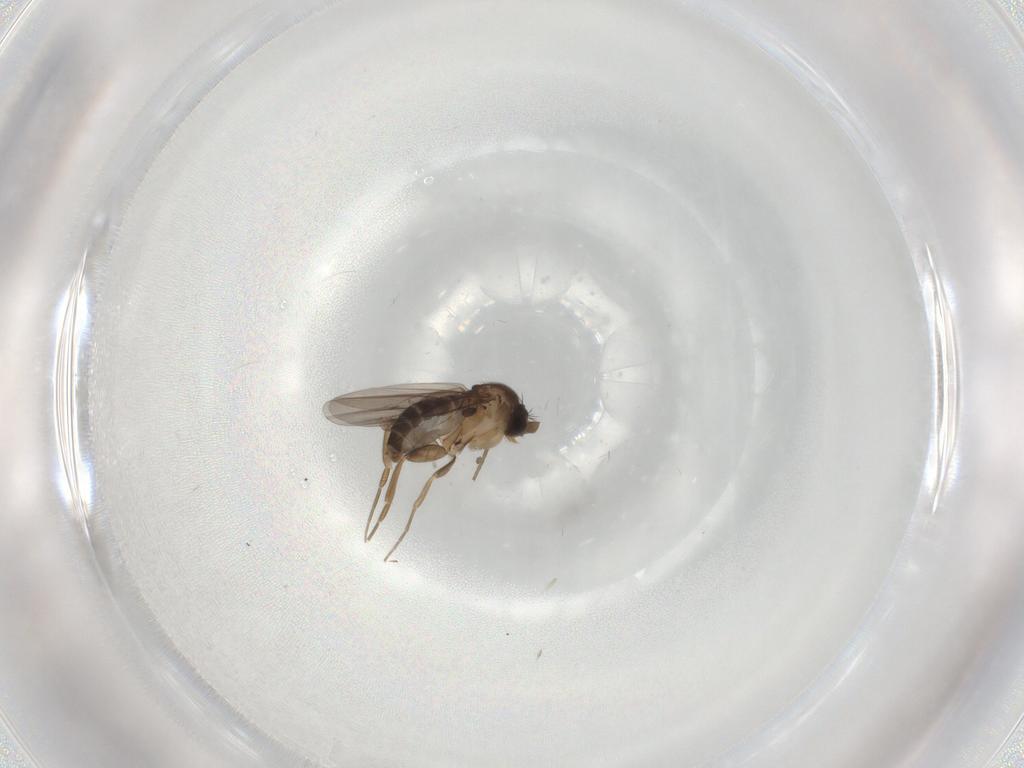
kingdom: Animalia
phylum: Arthropoda
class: Insecta
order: Diptera
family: Phoridae
